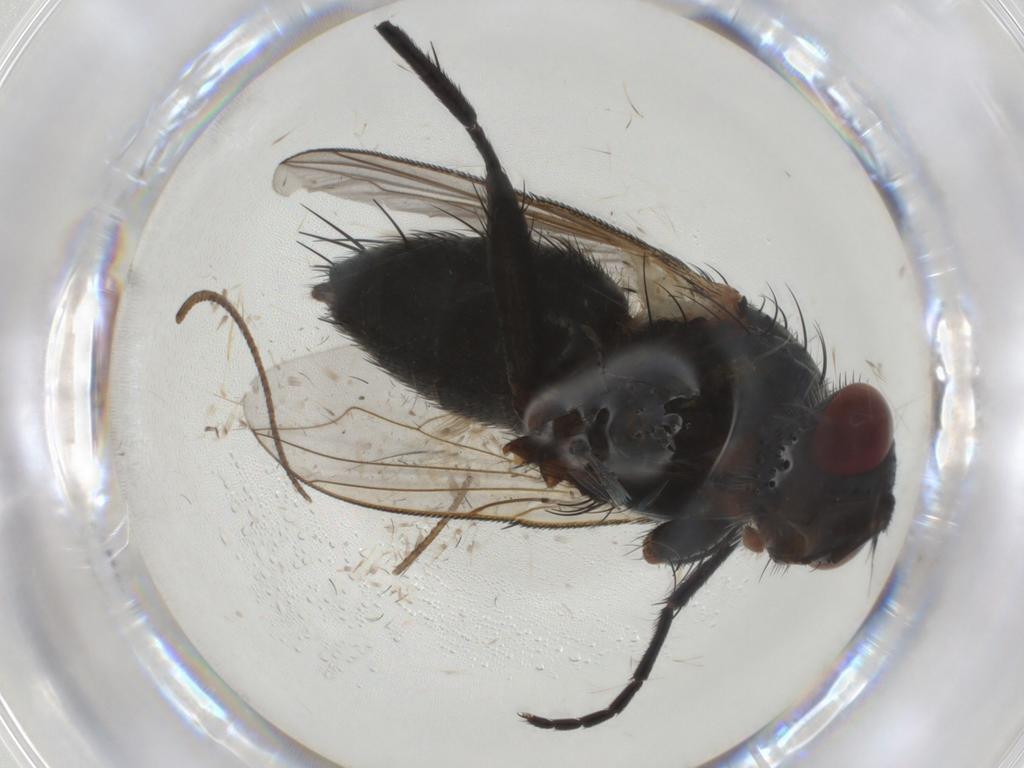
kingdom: Animalia
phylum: Arthropoda
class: Insecta
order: Diptera
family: Tachinidae
